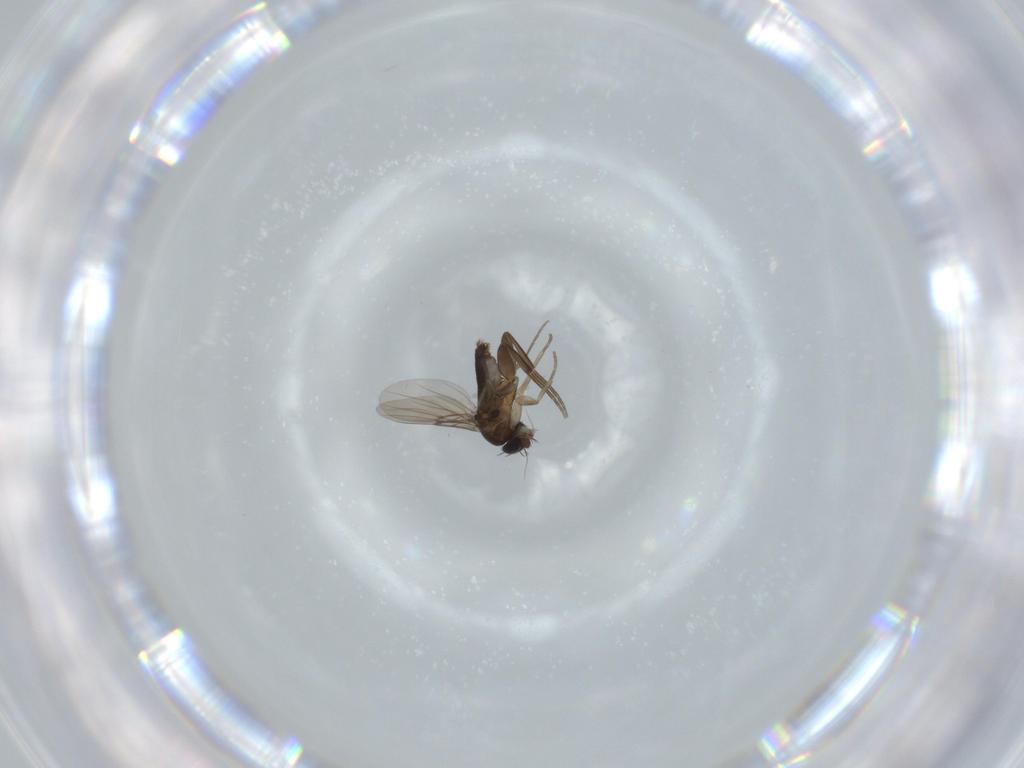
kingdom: Animalia
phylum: Arthropoda
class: Insecta
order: Diptera
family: Phoridae
